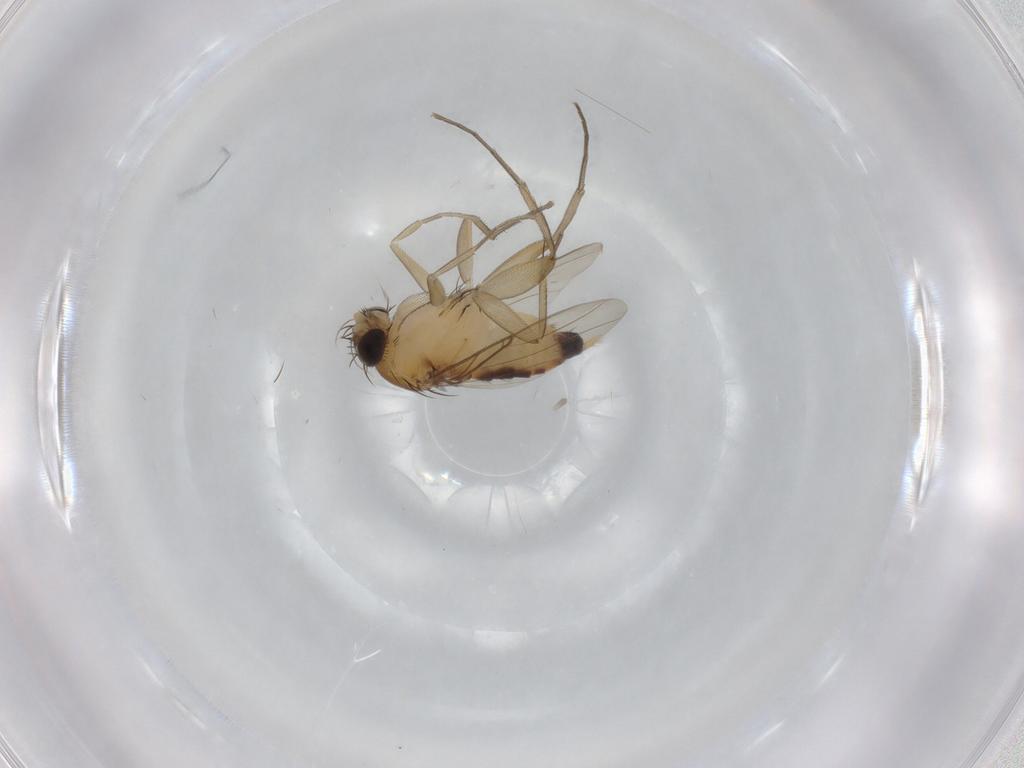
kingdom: Animalia
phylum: Arthropoda
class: Insecta
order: Diptera
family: Phoridae
